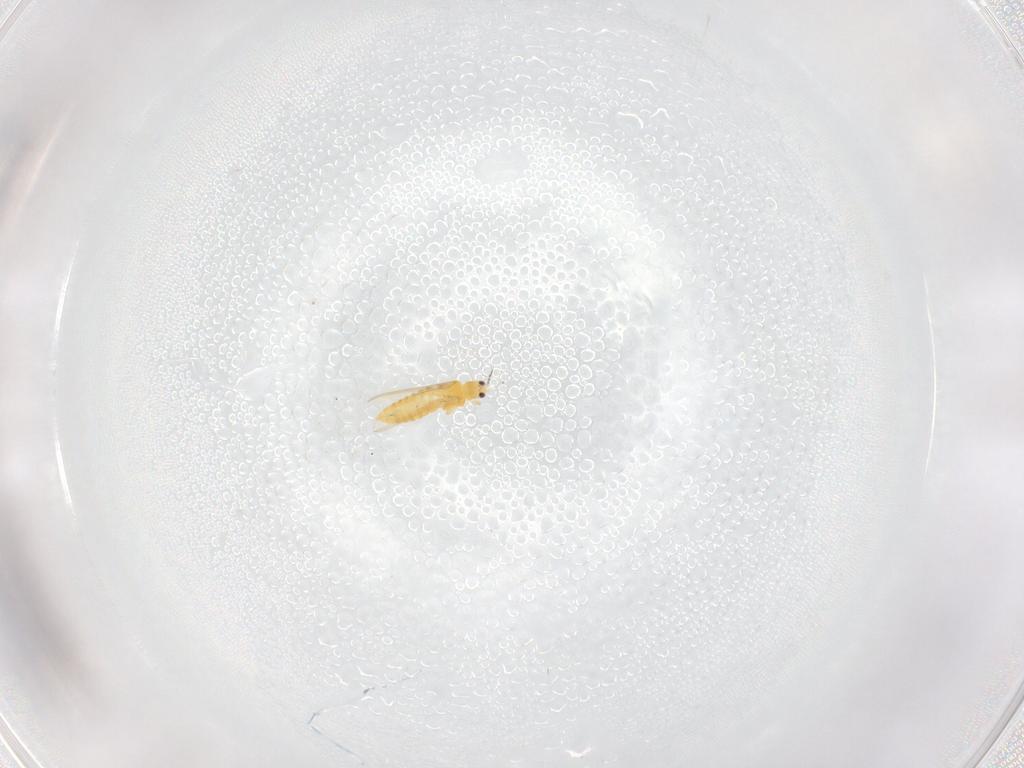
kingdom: Animalia
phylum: Arthropoda
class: Insecta
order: Thysanoptera
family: Thripidae
